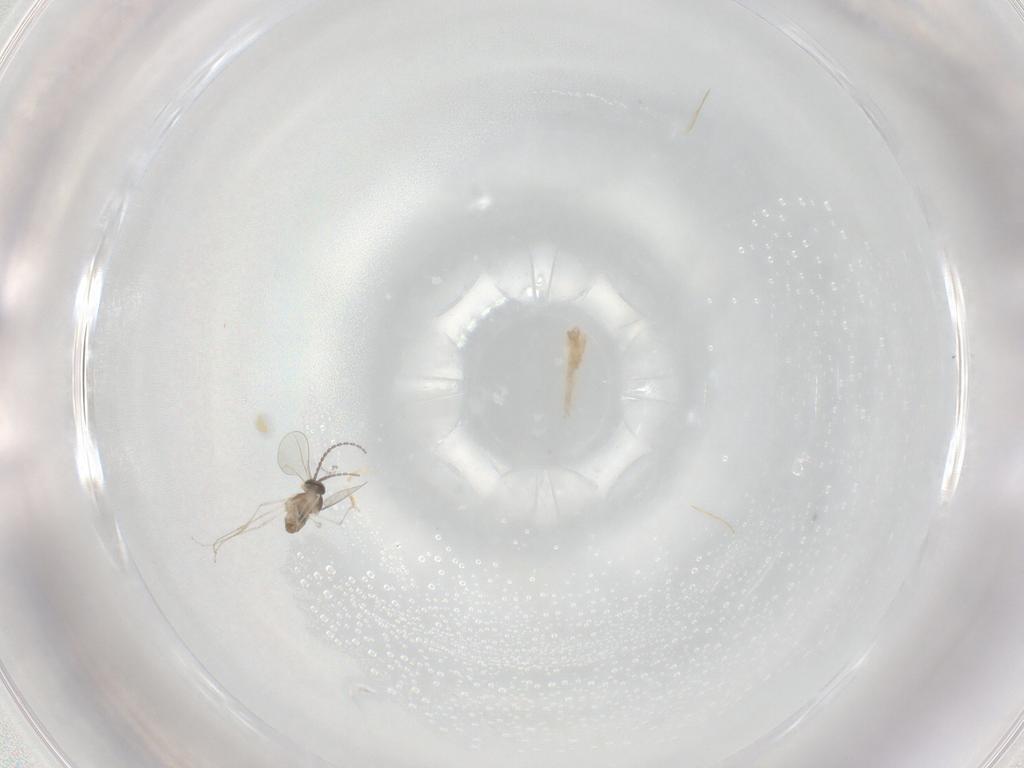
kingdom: Animalia
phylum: Arthropoda
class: Insecta
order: Diptera
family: Cecidomyiidae
